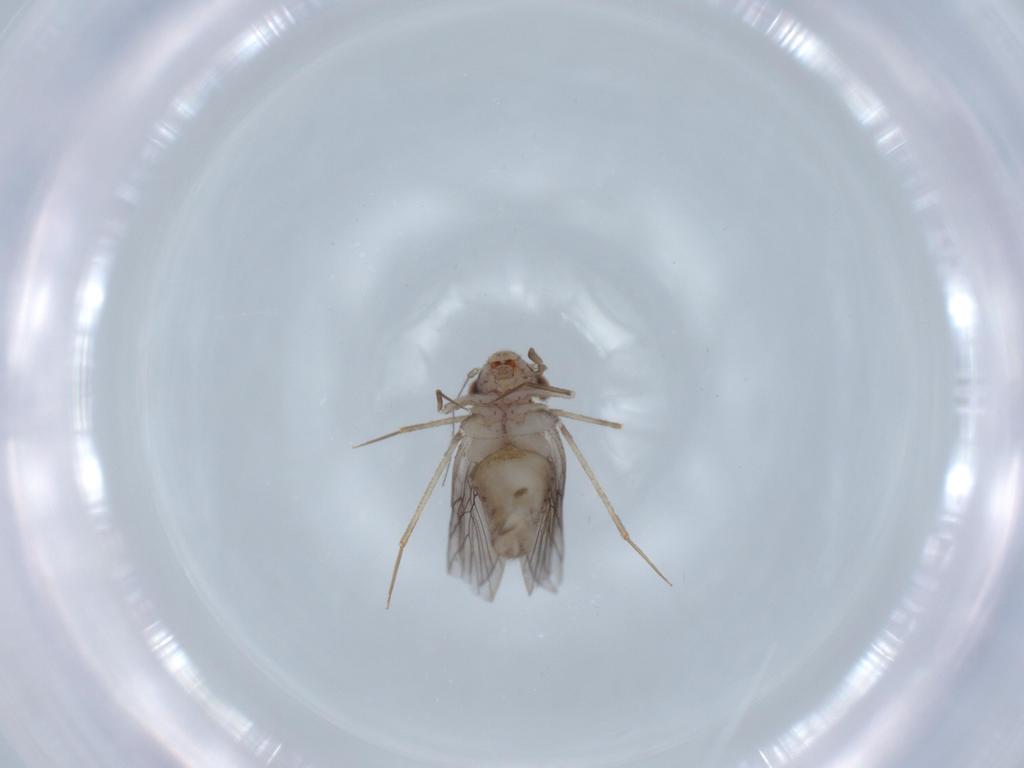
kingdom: Animalia
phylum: Arthropoda
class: Insecta
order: Psocodea
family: Lepidopsocidae
